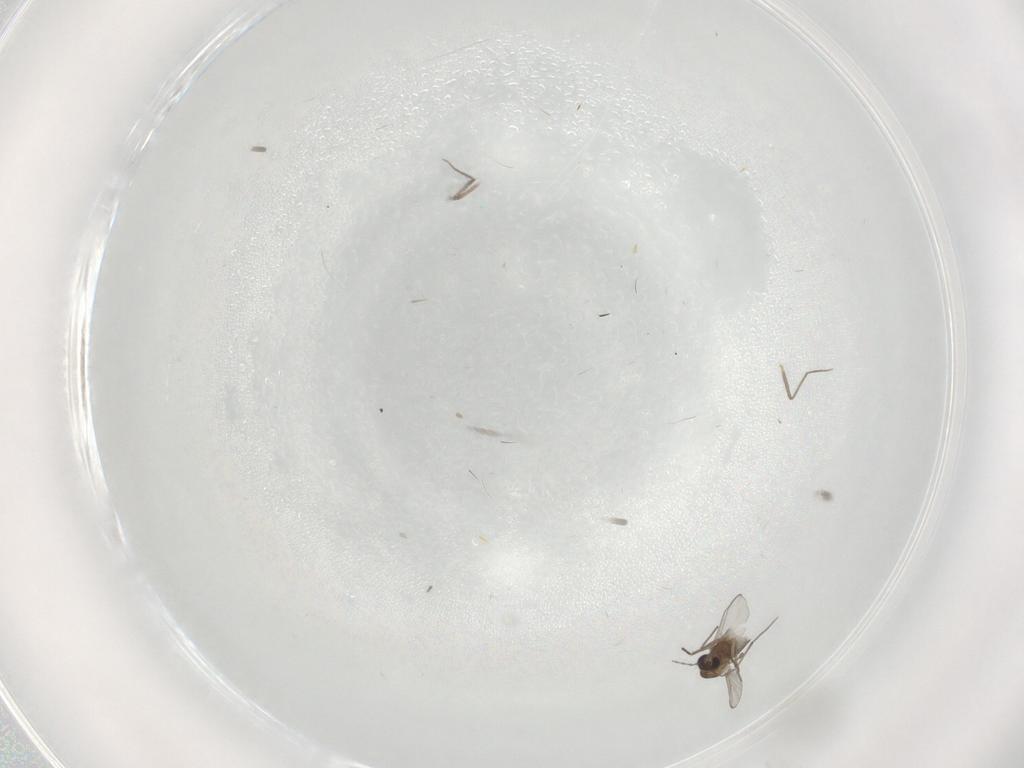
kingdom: Animalia
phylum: Arthropoda
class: Insecta
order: Diptera
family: Chironomidae
